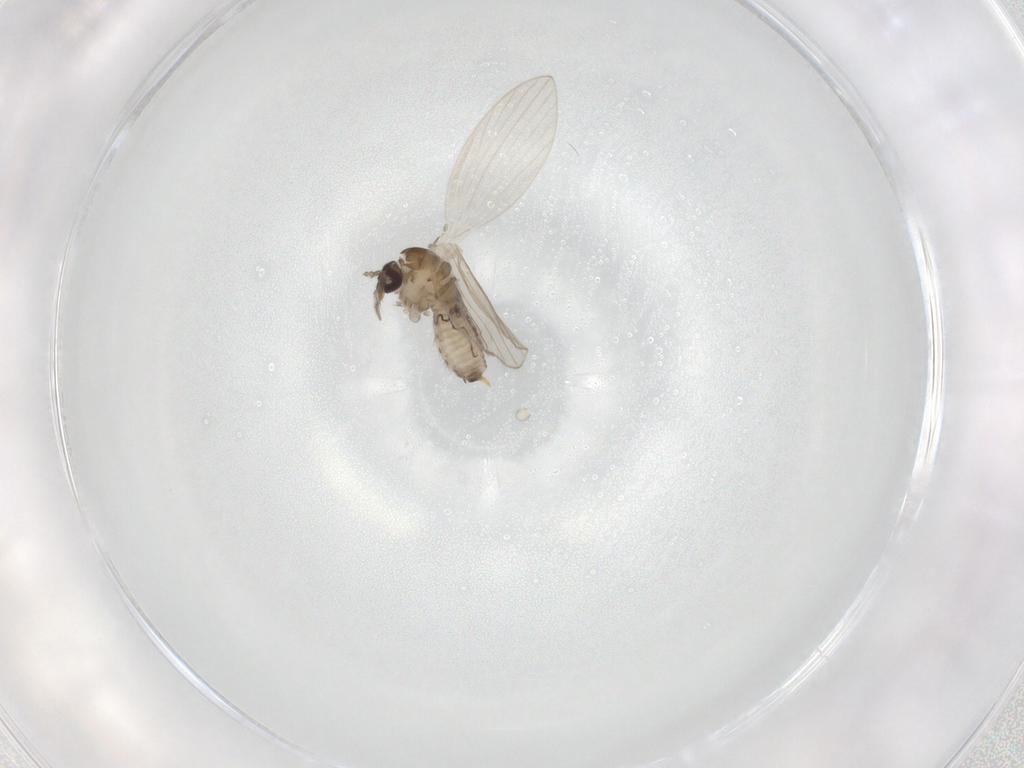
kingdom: Animalia
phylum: Arthropoda
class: Insecta
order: Diptera
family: Psychodidae
